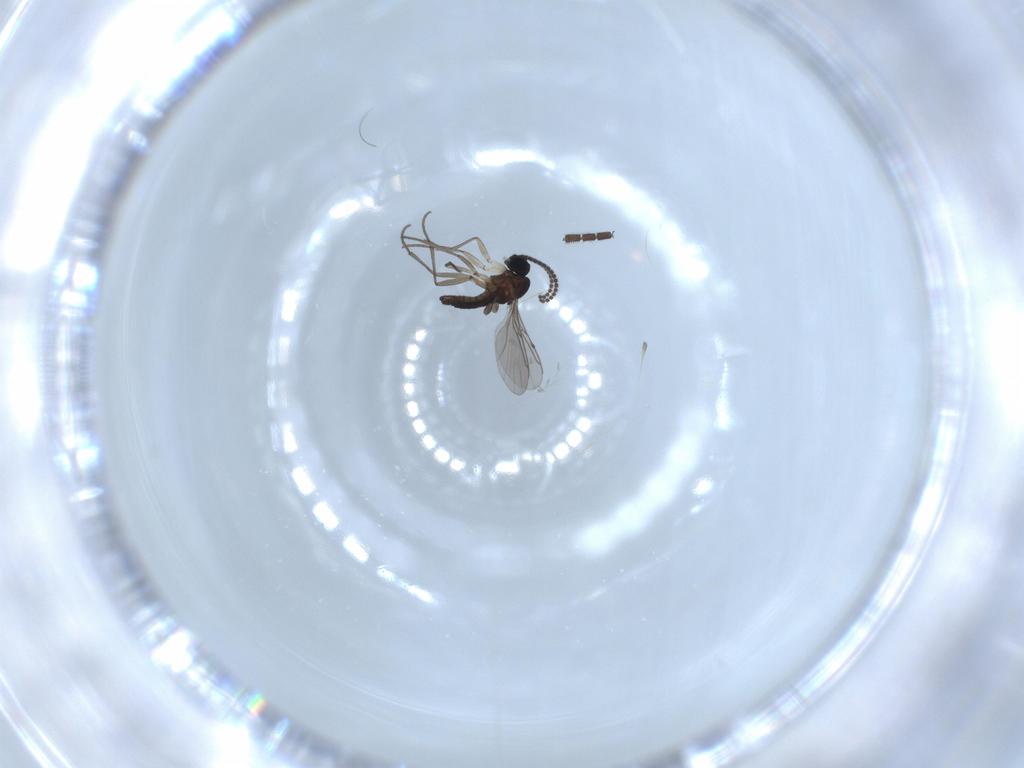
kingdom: Animalia
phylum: Arthropoda
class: Insecta
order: Diptera
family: Sciaridae
